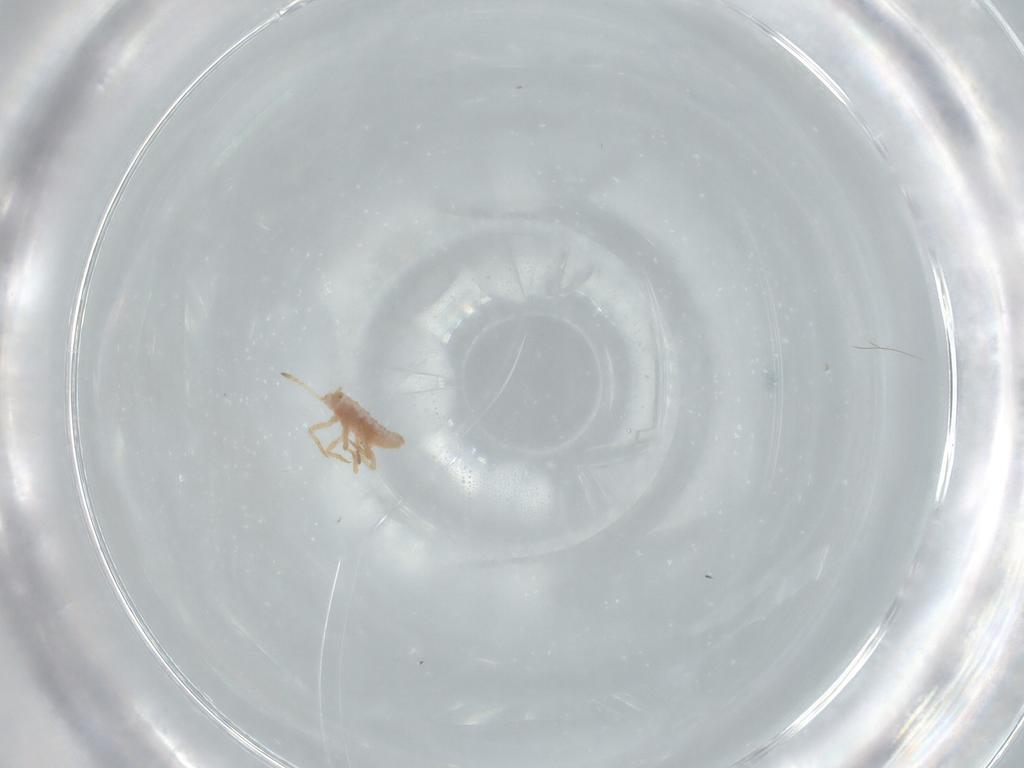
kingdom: Animalia
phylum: Arthropoda
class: Insecta
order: Hemiptera
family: Coccoidea_incertae_sedis
